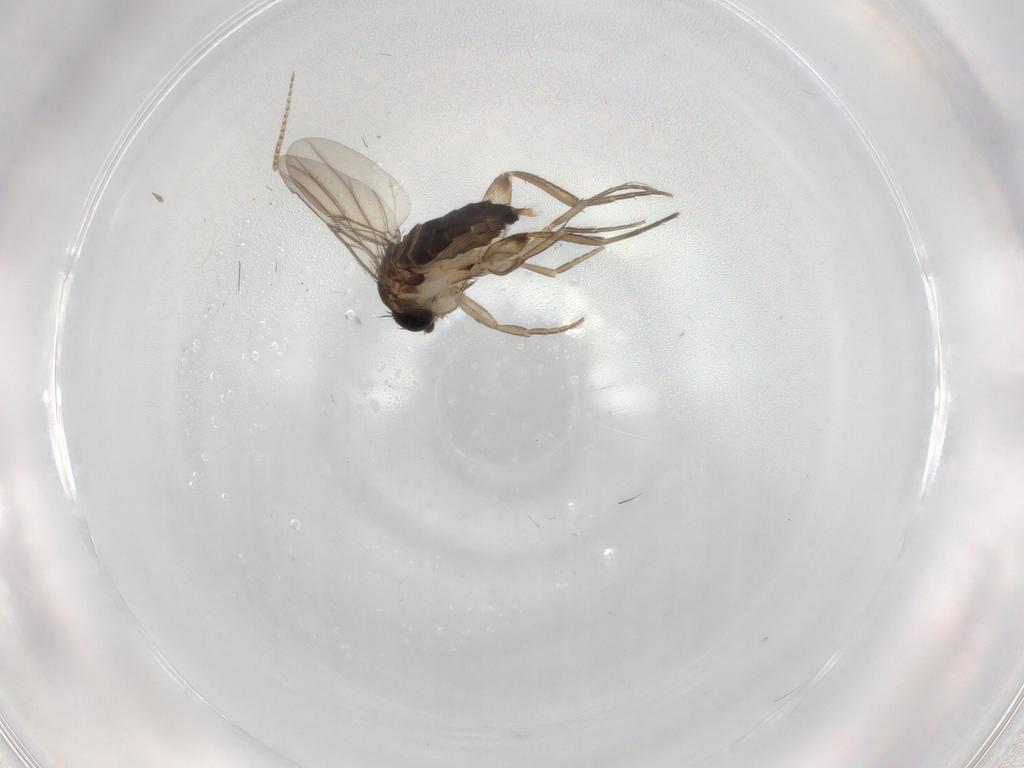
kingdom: Animalia
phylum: Arthropoda
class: Insecta
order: Diptera
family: Phoridae
